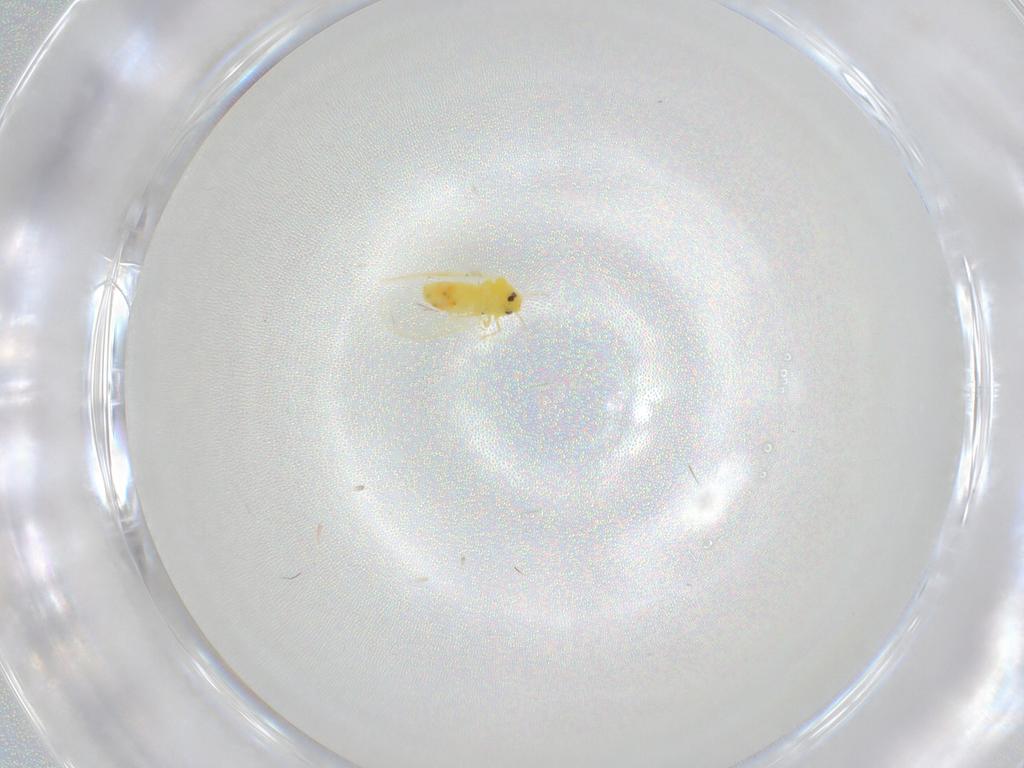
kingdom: Animalia
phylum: Arthropoda
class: Insecta
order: Hemiptera
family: Aleyrodidae
